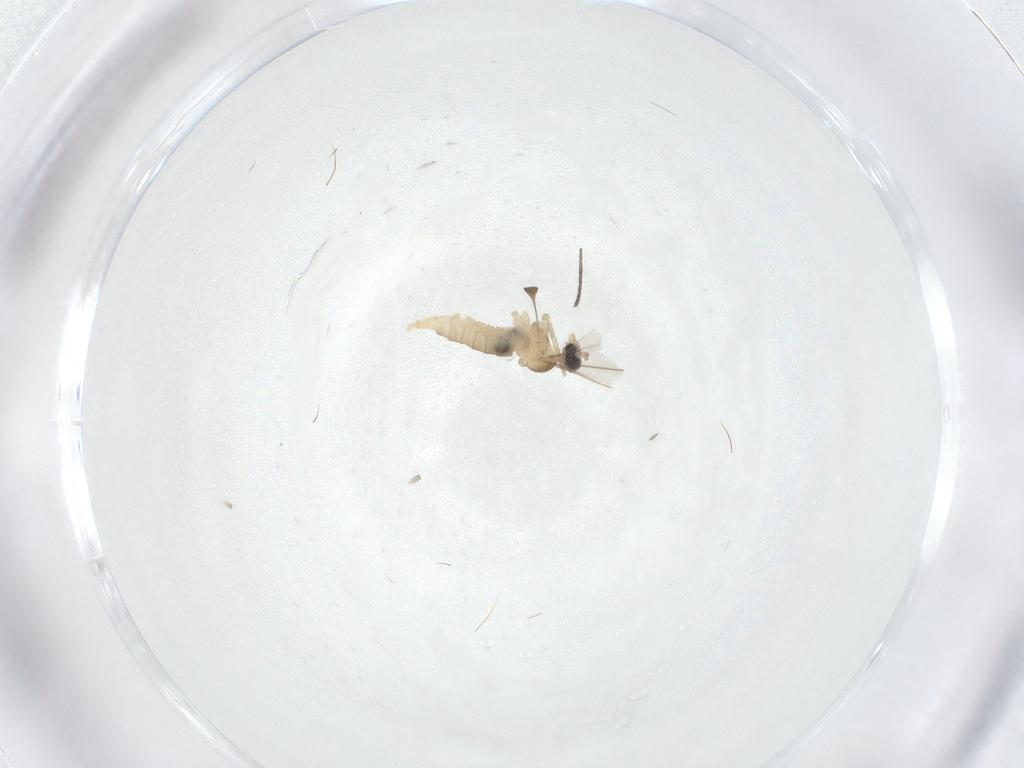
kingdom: Animalia
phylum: Arthropoda
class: Insecta
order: Diptera
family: Cecidomyiidae
